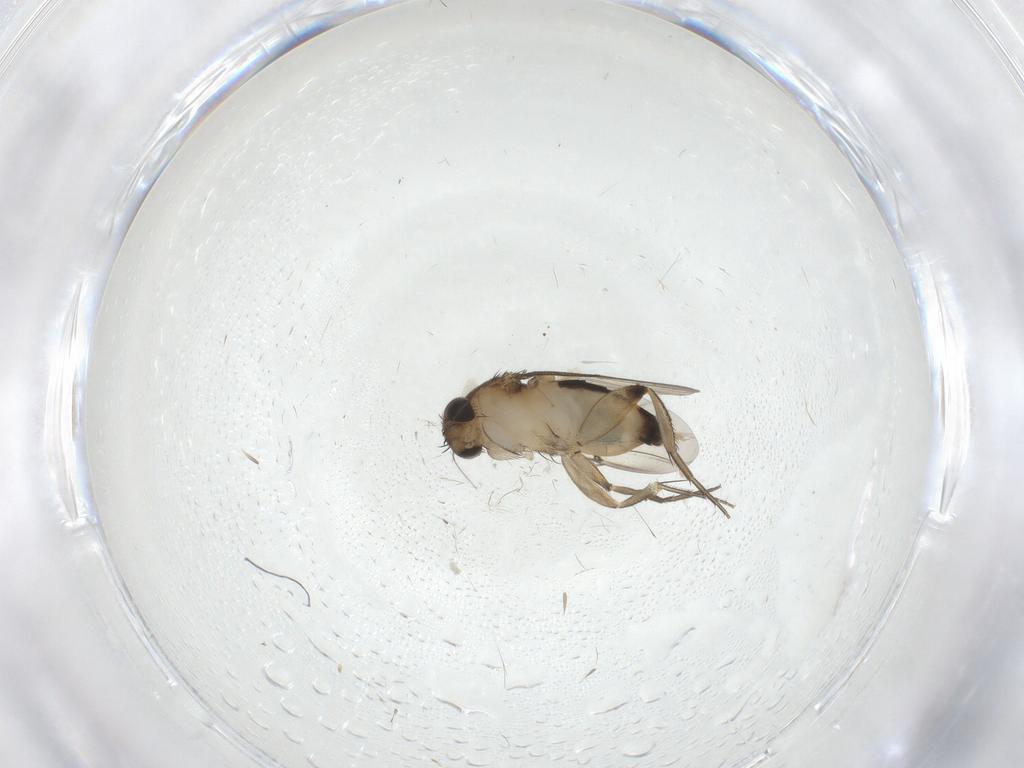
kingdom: Animalia
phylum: Arthropoda
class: Insecta
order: Diptera
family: Phoridae
